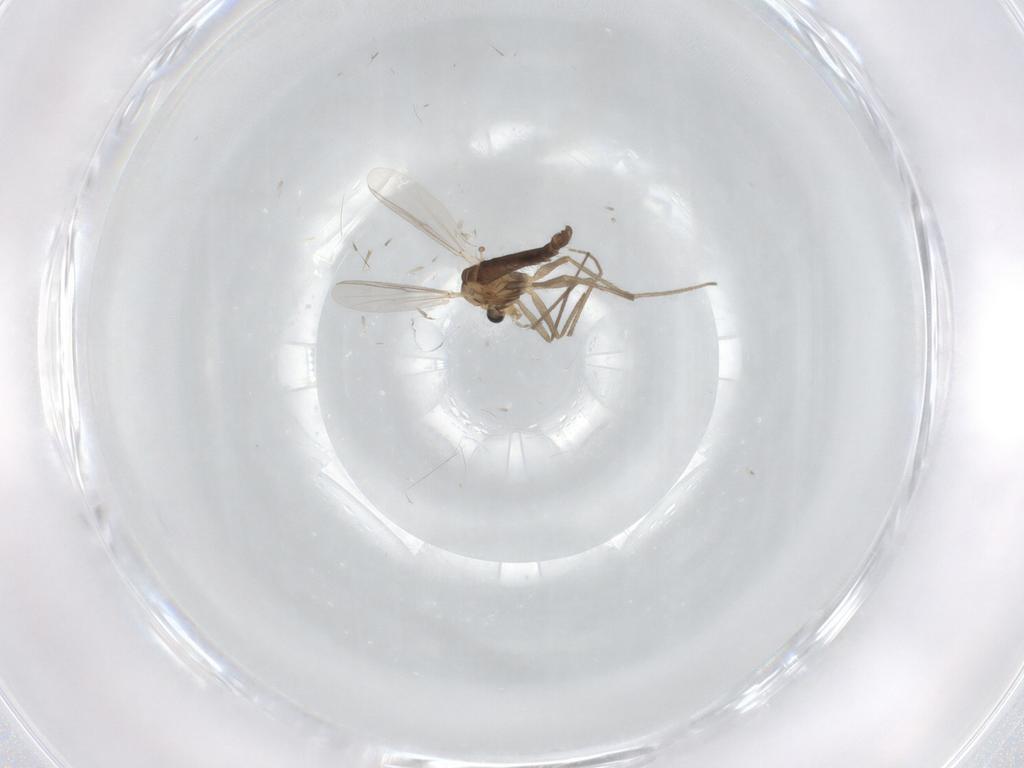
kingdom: Animalia
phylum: Arthropoda
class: Insecta
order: Diptera
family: Chironomidae
